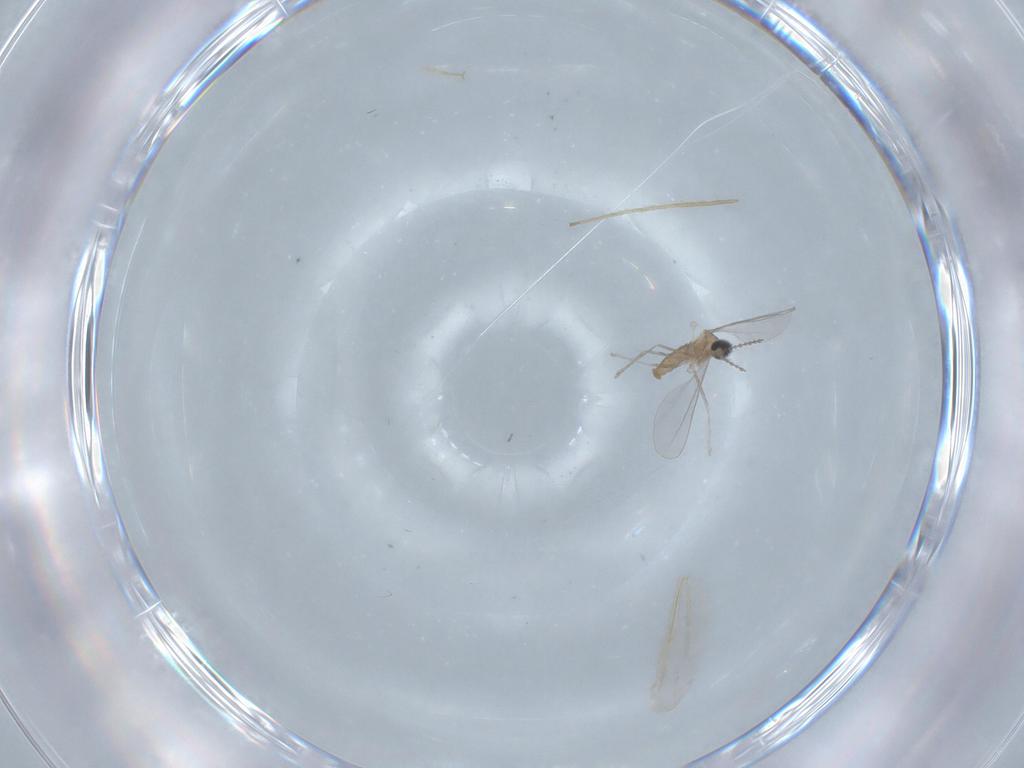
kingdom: Animalia
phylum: Arthropoda
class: Insecta
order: Diptera
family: Cecidomyiidae
